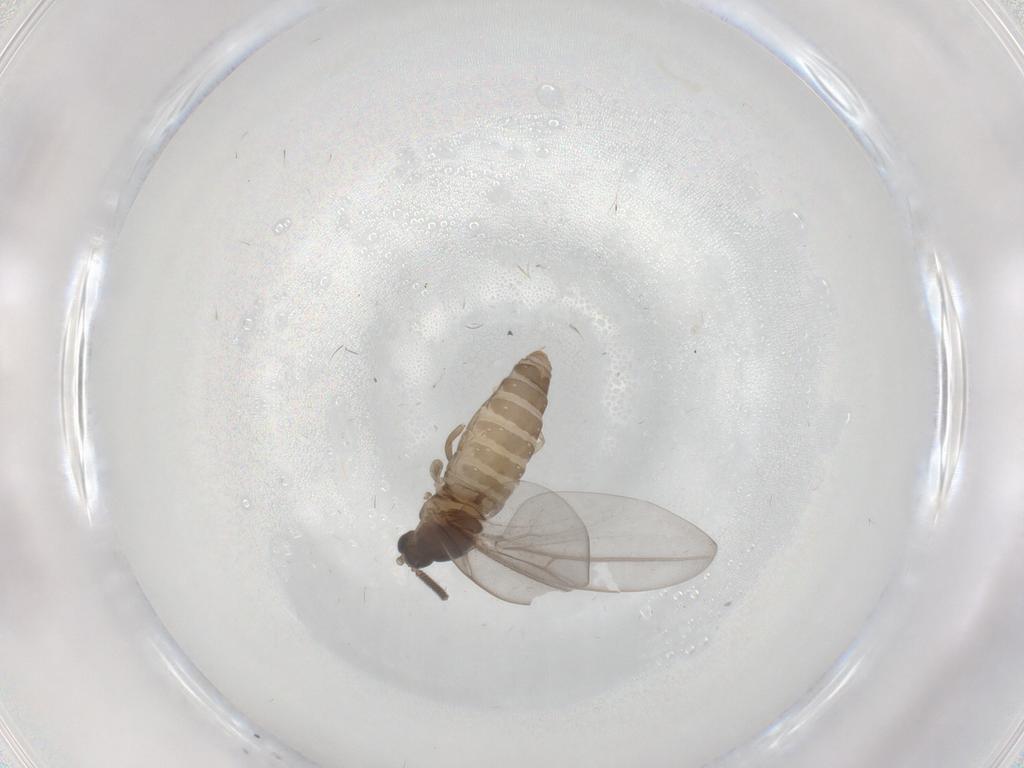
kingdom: Animalia
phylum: Arthropoda
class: Insecta
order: Diptera
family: Cecidomyiidae
